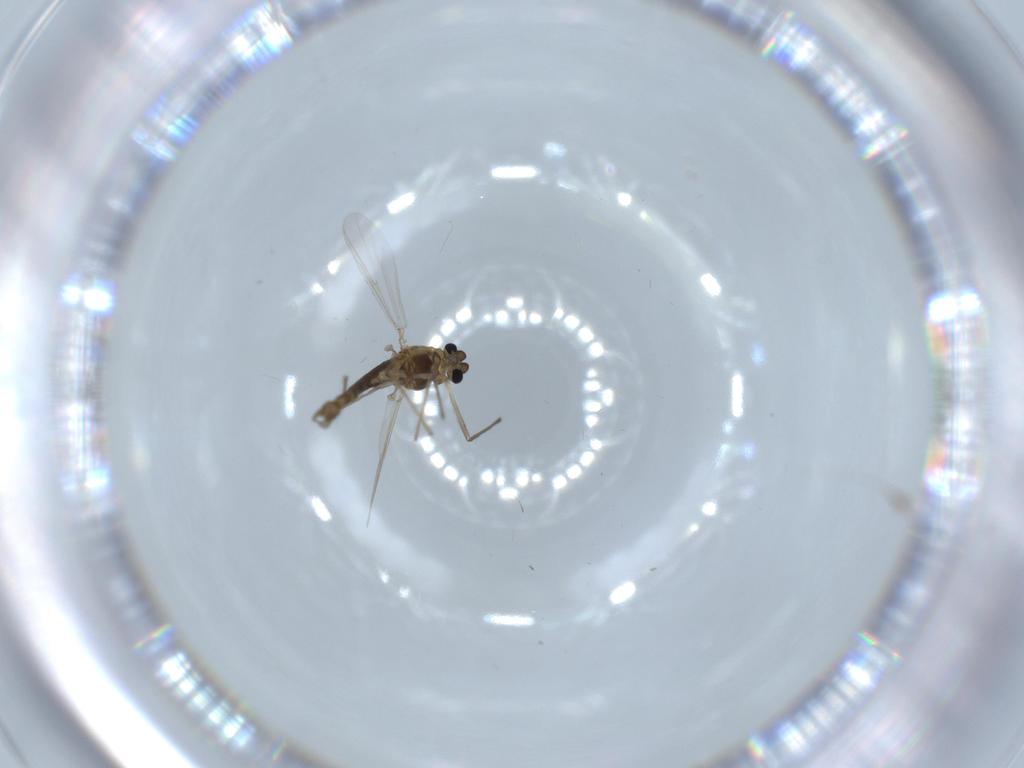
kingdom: Animalia
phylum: Arthropoda
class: Insecta
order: Diptera
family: Chironomidae
